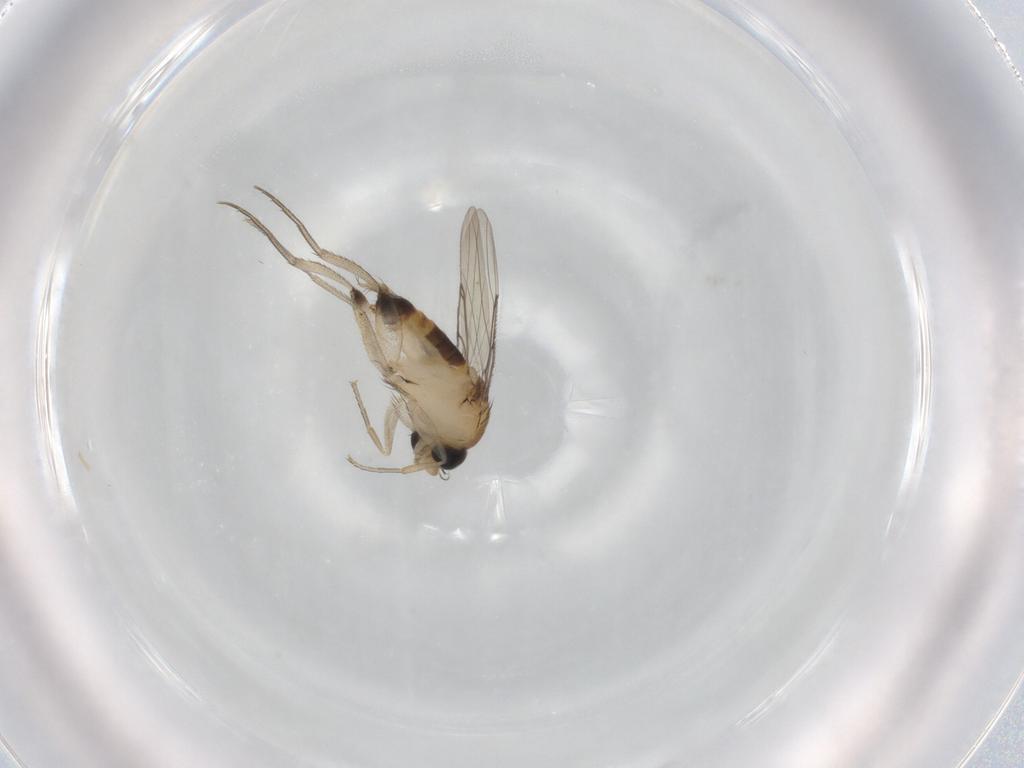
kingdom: Animalia
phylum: Arthropoda
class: Insecta
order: Diptera
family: Phoridae
